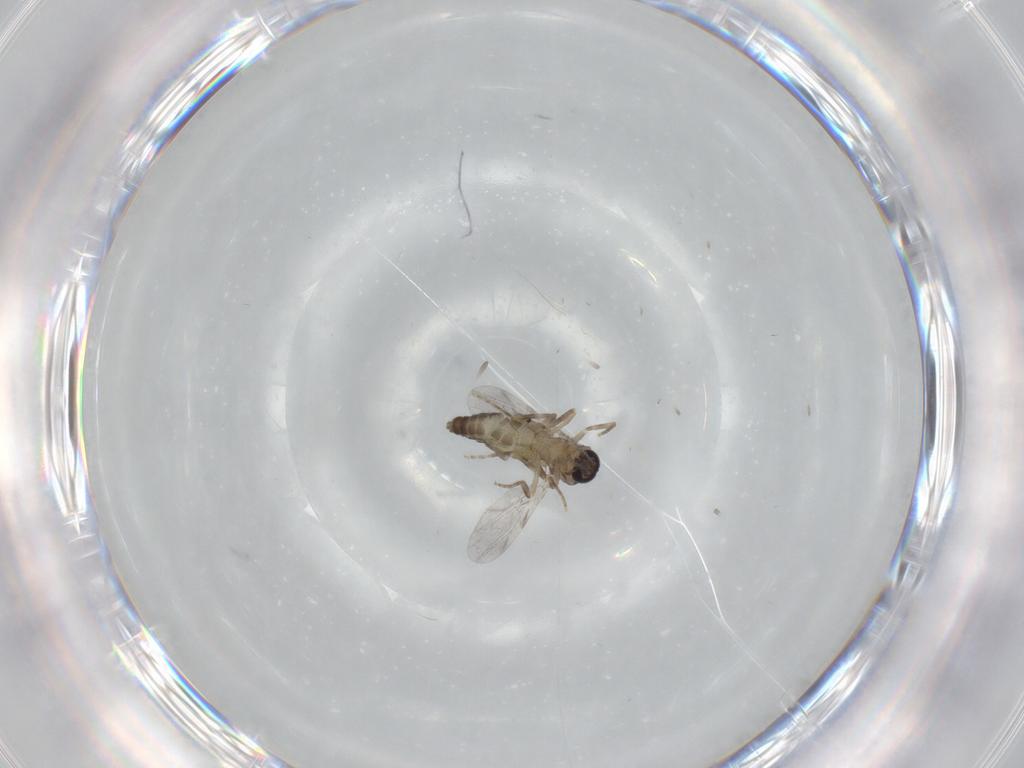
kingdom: Animalia
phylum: Arthropoda
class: Insecta
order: Diptera
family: Ceratopogonidae
